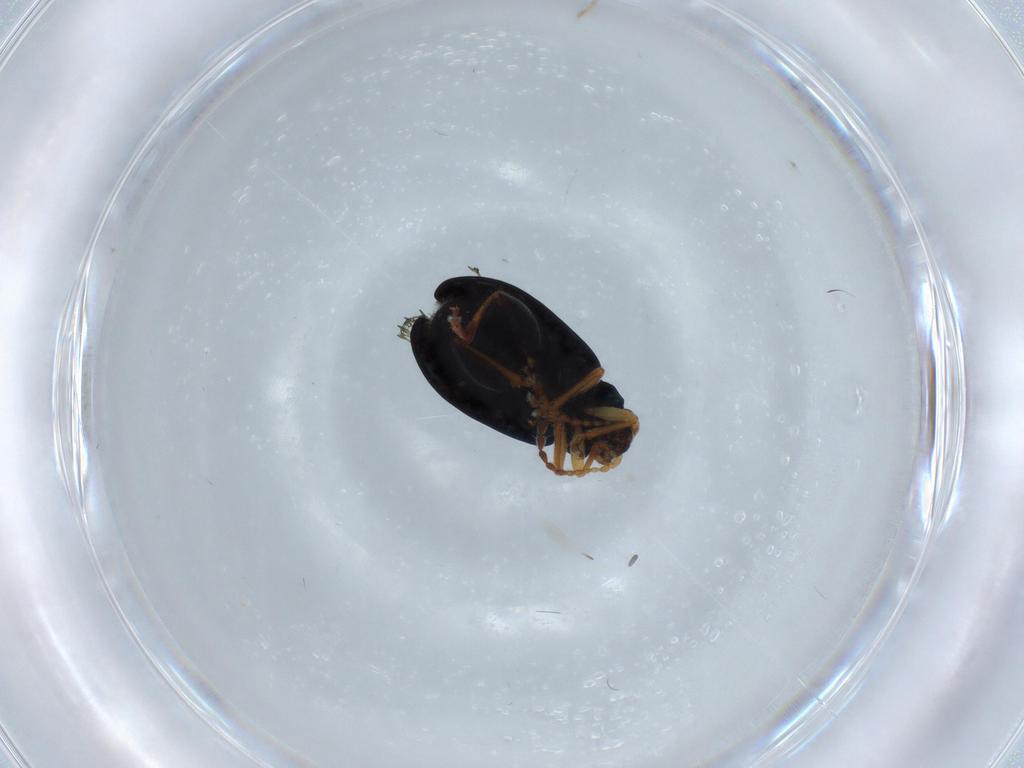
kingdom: Animalia
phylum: Arthropoda
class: Insecta
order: Coleoptera
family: Chrysomelidae
